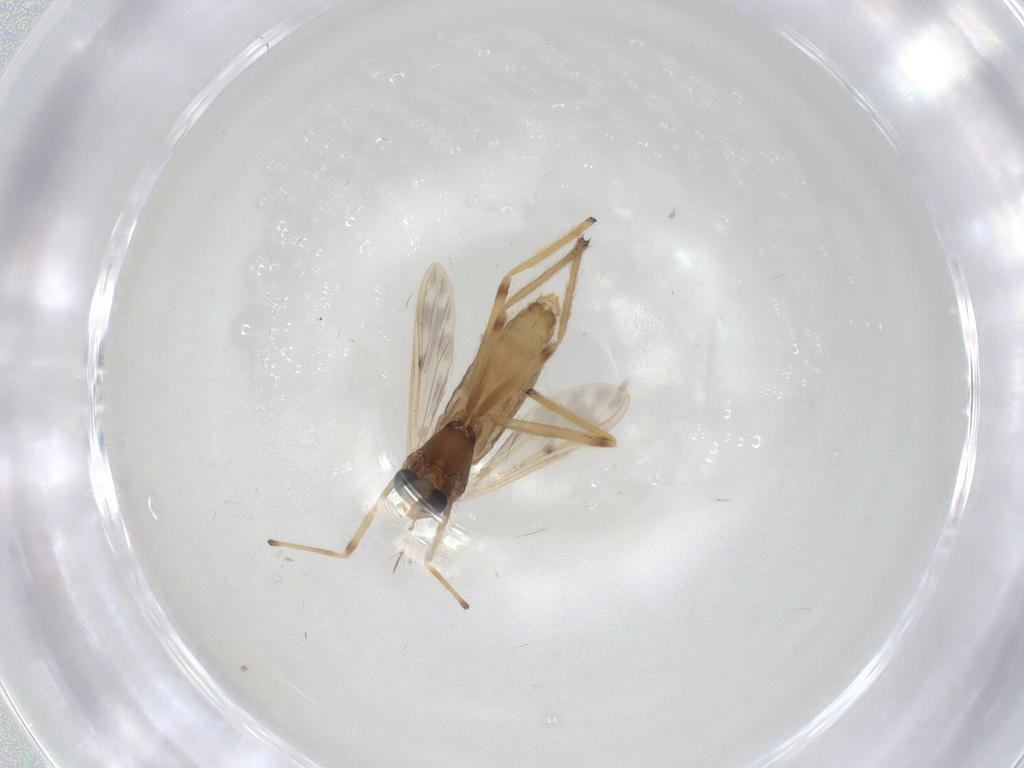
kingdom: Animalia
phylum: Arthropoda
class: Insecta
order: Diptera
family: Chironomidae
